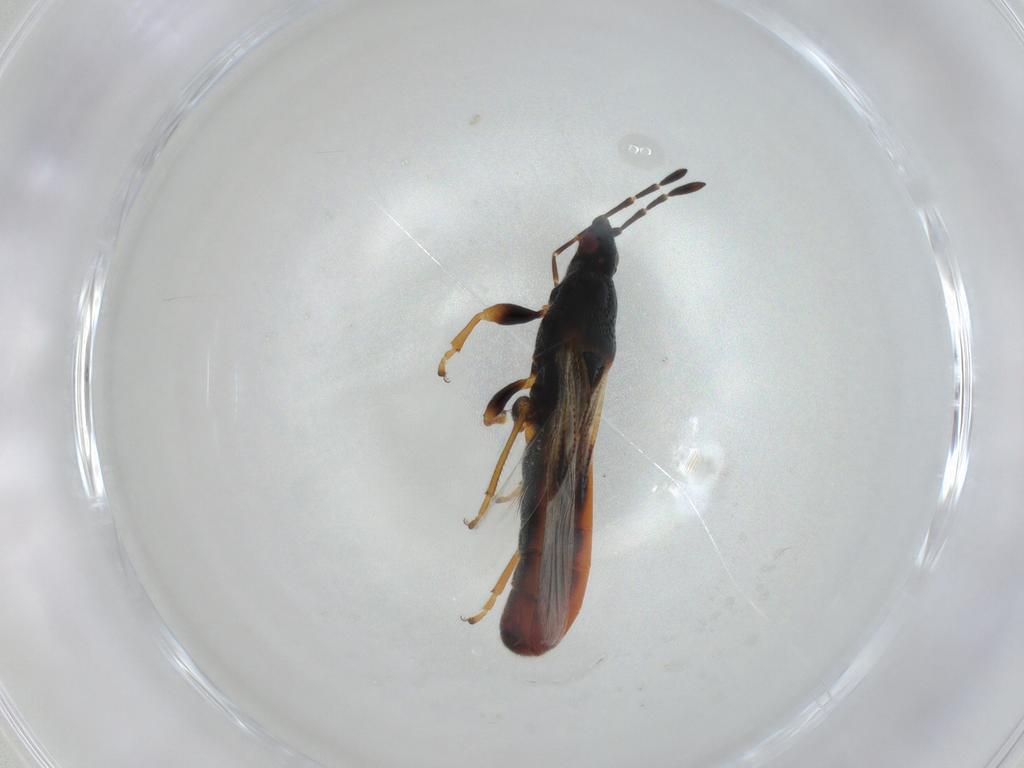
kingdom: Animalia
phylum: Arthropoda
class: Insecta
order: Hemiptera
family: Blissidae
